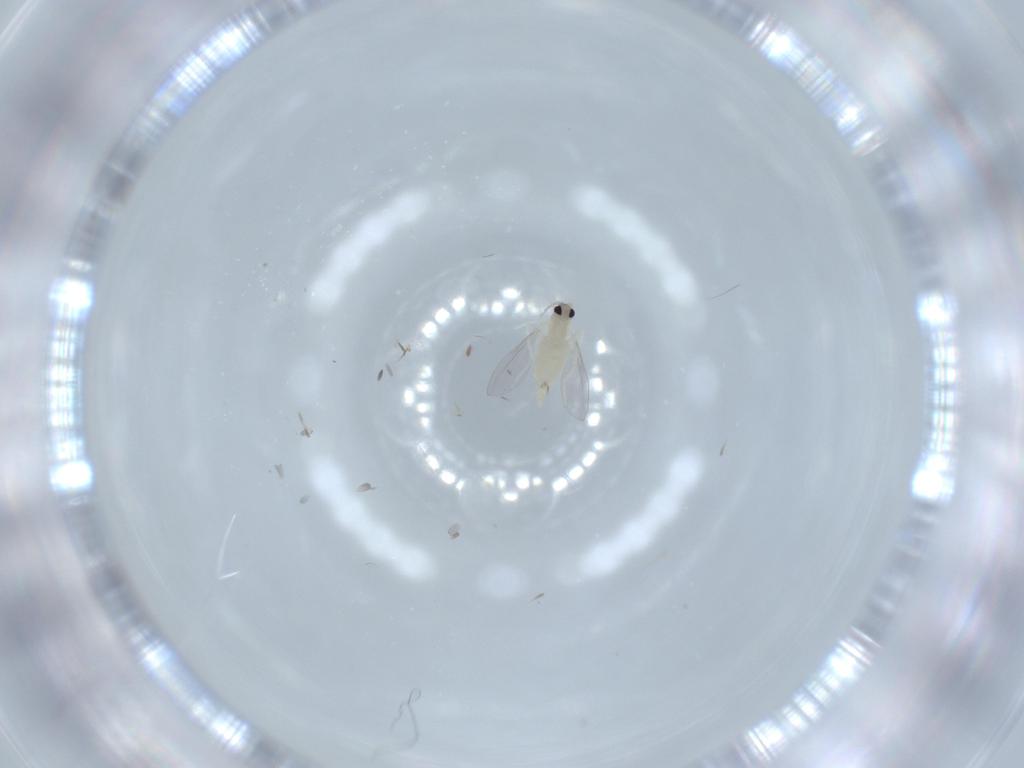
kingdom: Animalia
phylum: Arthropoda
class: Insecta
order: Diptera
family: Cecidomyiidae
